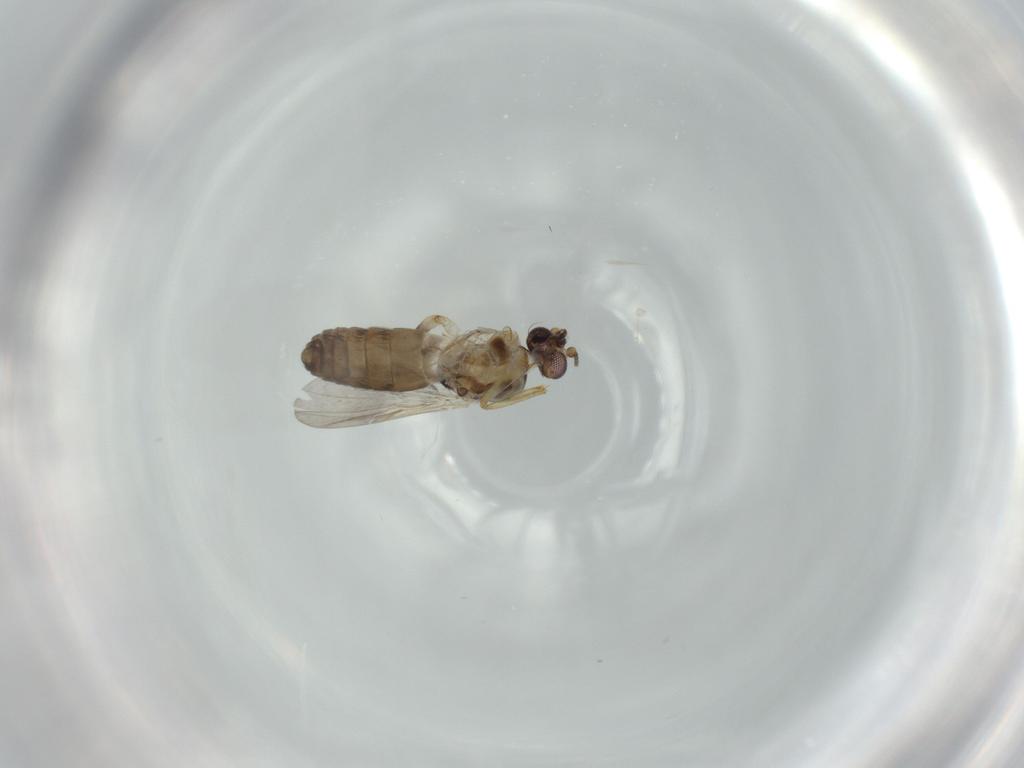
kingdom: Animalia
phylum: Arthropoda
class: Insecta
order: Diptera
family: Ceratopogonidae
